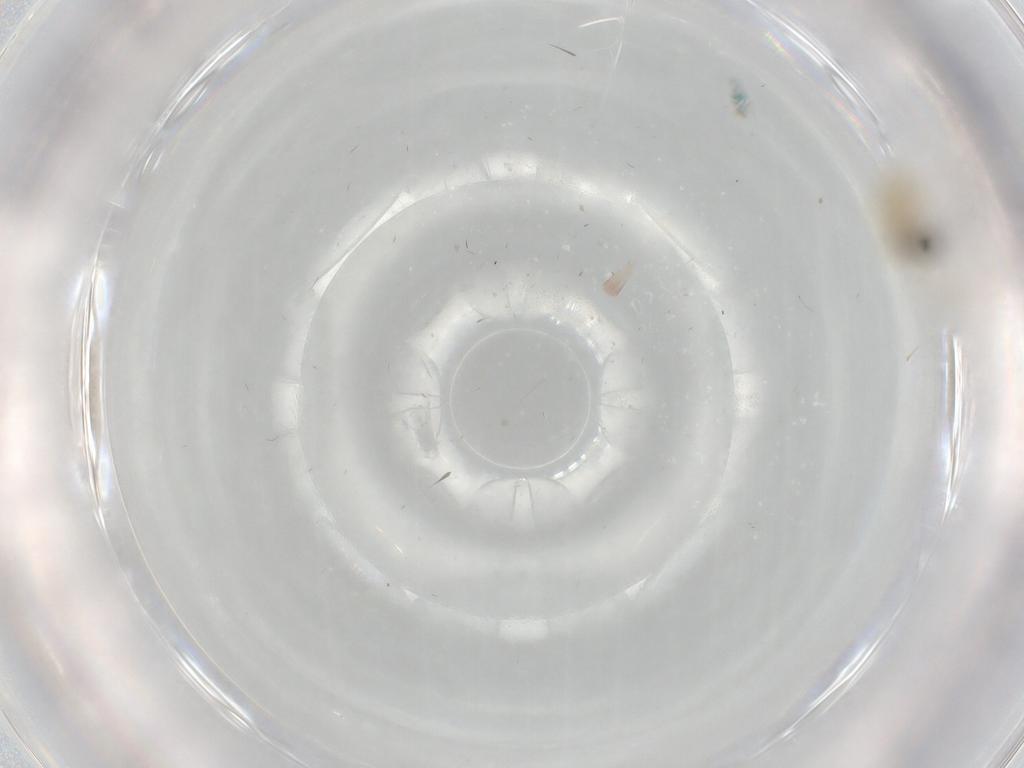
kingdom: Animalia
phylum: Arthropoda
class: Insecta
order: Diptera
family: Cecidomyiidae
